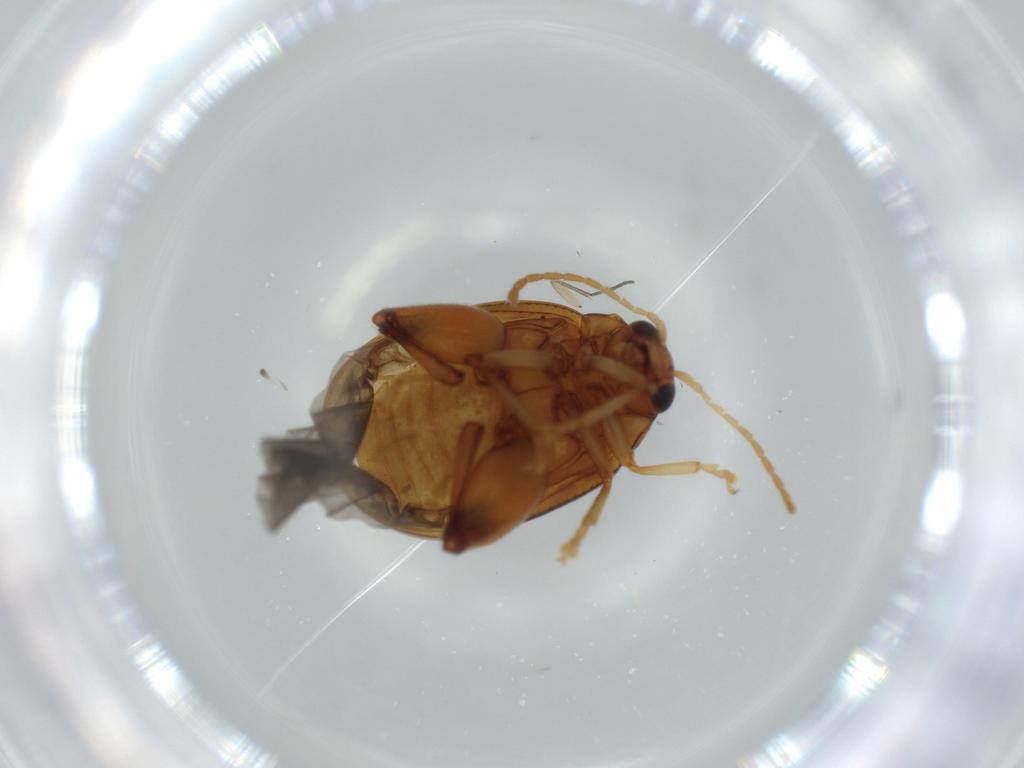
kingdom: Animalia
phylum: Arthropoda
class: Insecta
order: Coleoptera
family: Chrysomelidae
